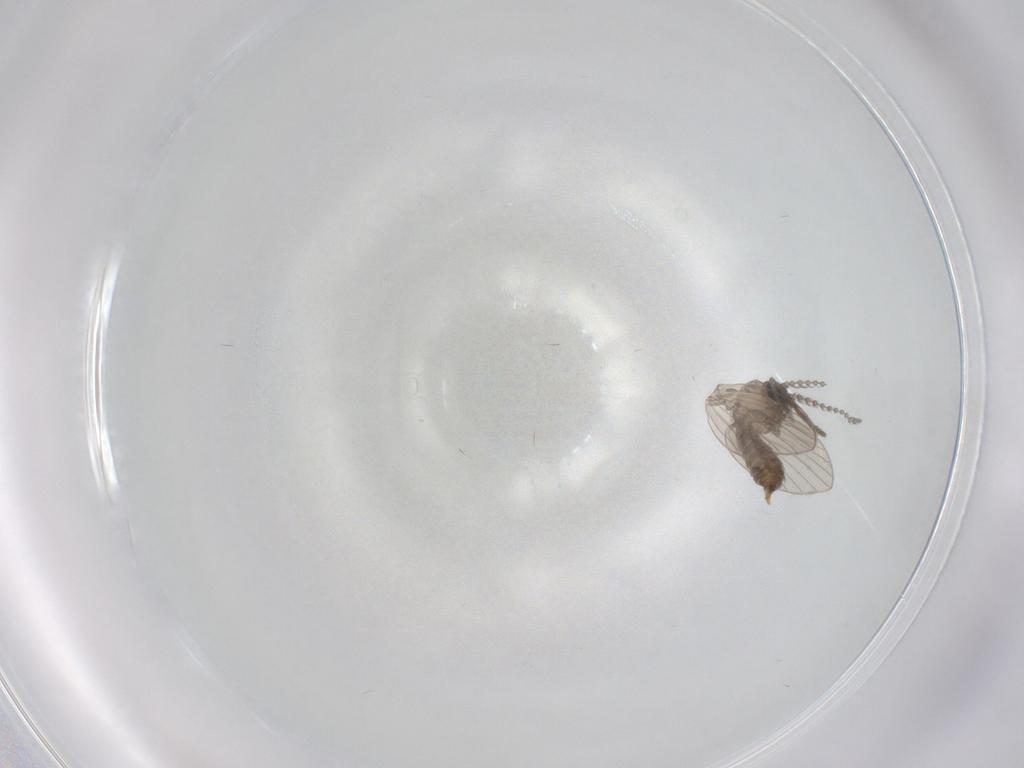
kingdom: Animalia
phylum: Arthropoda
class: Insecta
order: Diptera
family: Psychodidae
